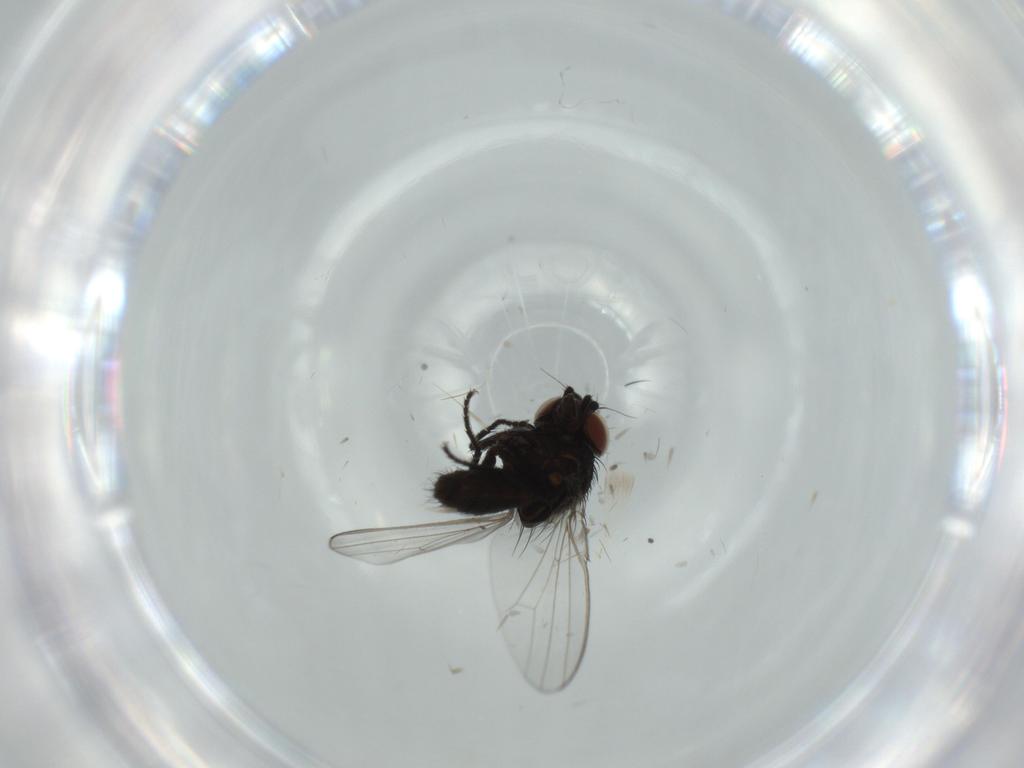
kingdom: Animalia
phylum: Arthropoda
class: Insecta
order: Diptera
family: Milichiidae
